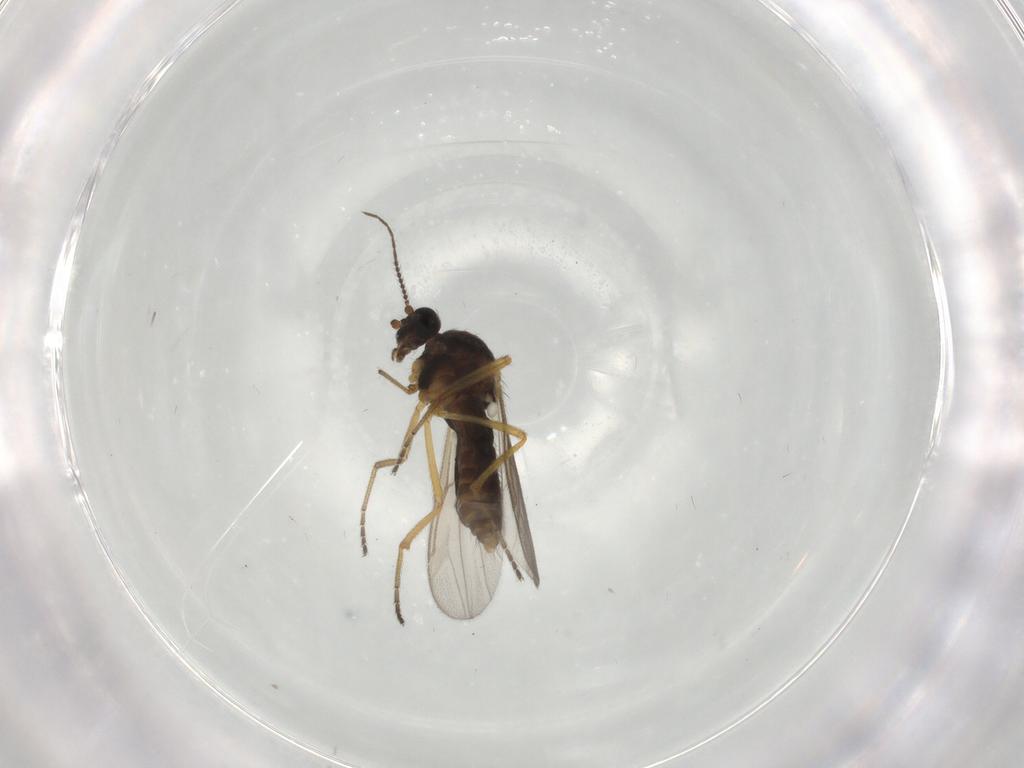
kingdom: Animalia
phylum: Arthropoda
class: Insecta
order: Diptera
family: Ceratopogonidae
